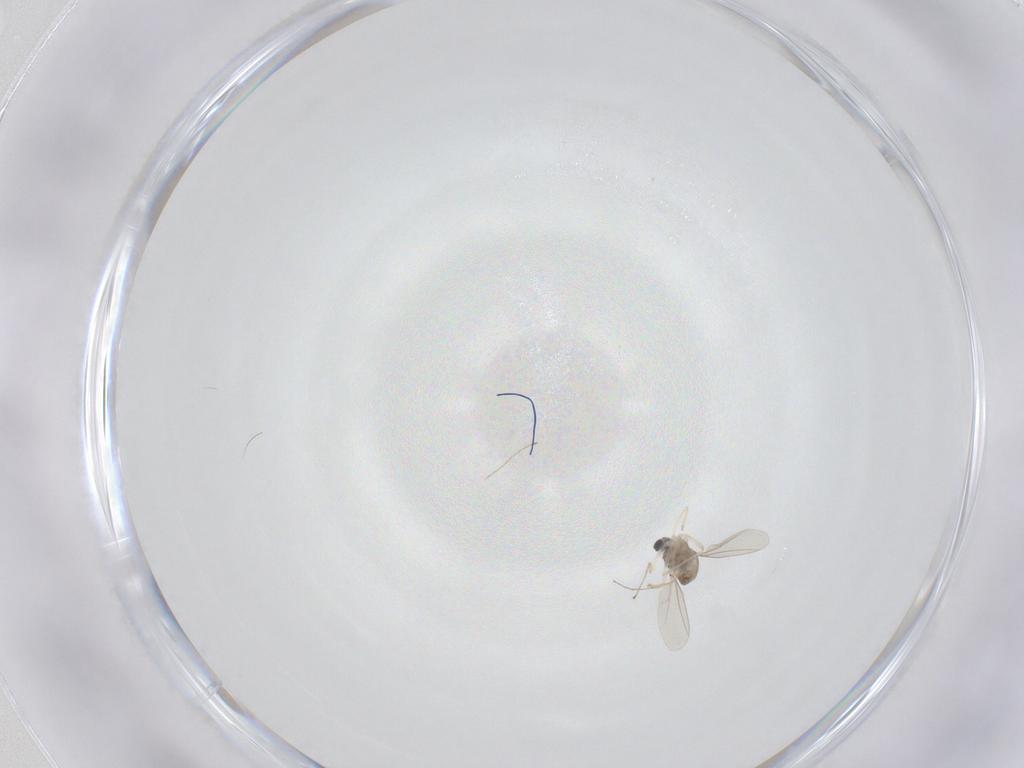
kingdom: Animalia
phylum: Arthropoda
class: Insecta
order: Diptera
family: Cecidomyiidae
